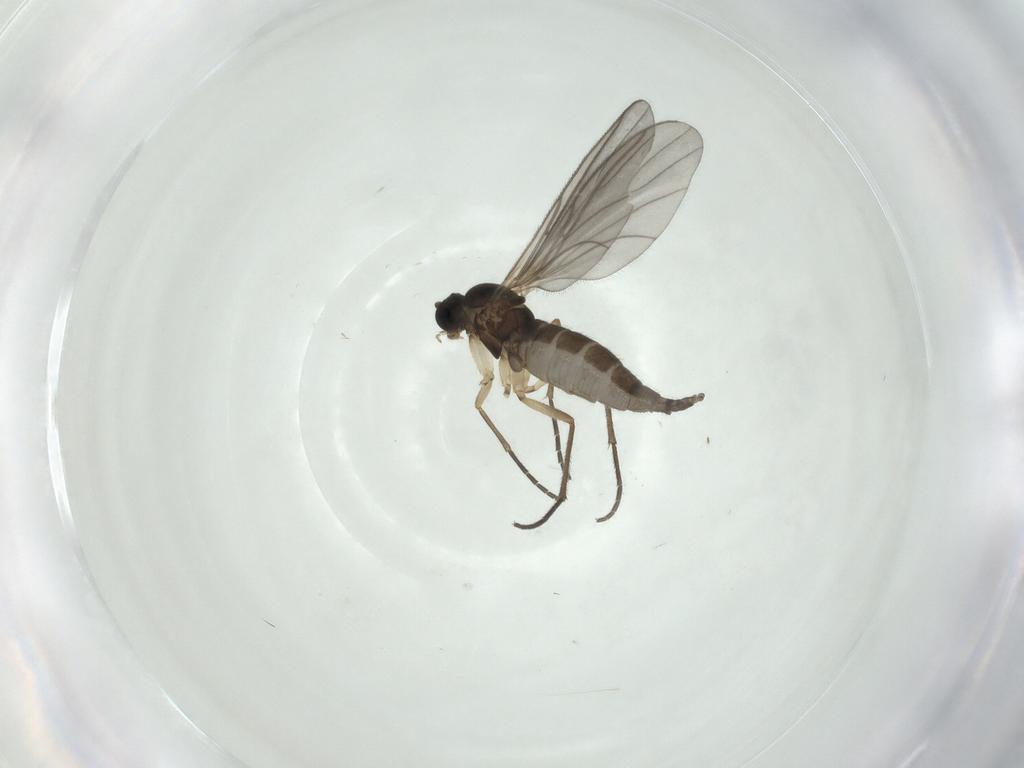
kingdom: Animalia
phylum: Arthropoda
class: Insecta
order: Diptera
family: Sciaridae
